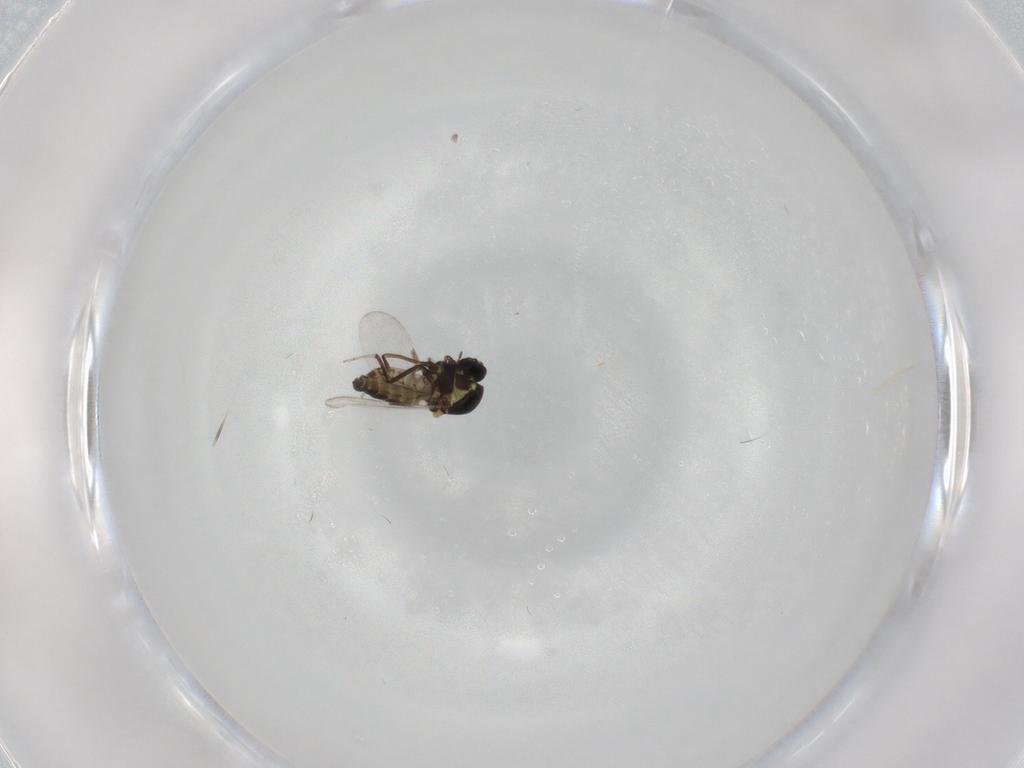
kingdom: Animalia
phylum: Arthropoda
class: Insecta
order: Diptera
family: Ceratopogonidae
